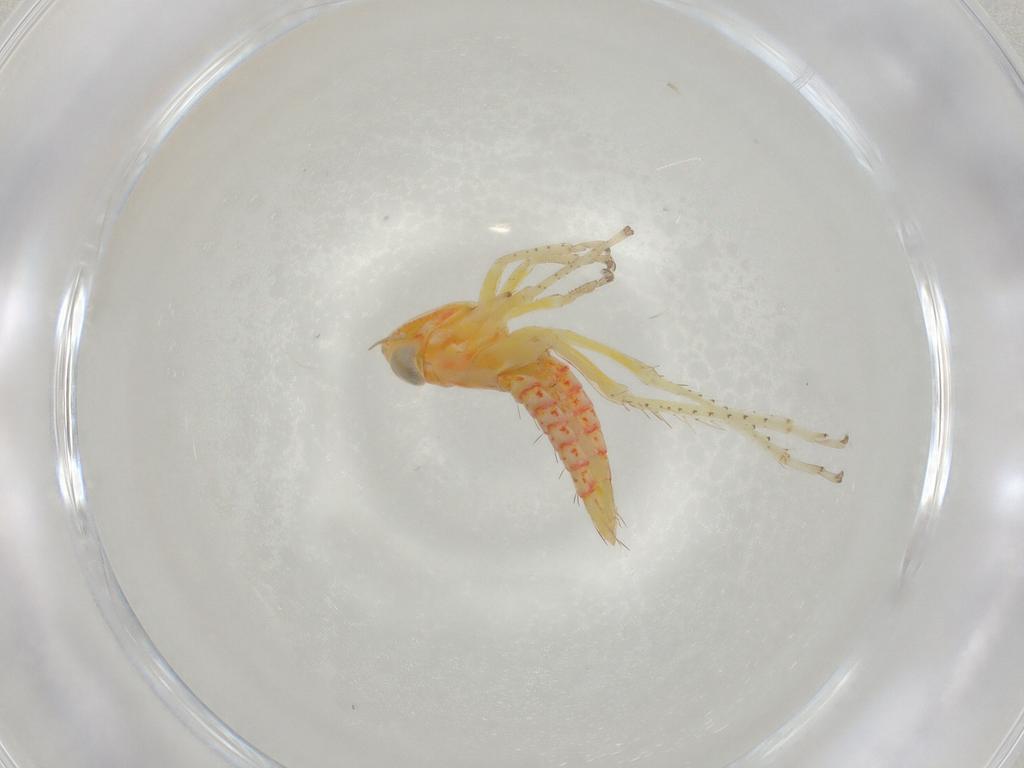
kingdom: Animalia
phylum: Arthropoda
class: Insecta
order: Hemiptera
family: Cicadellidae
